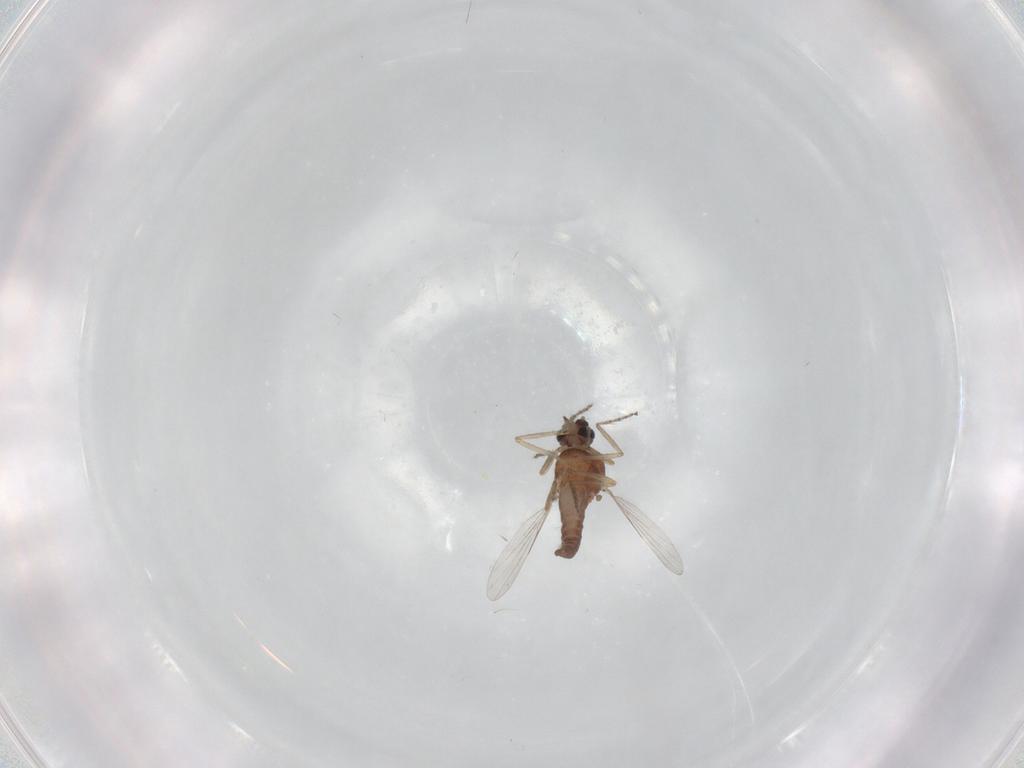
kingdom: Animalia
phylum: Arthropoda
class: Insecta
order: Diptera
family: Ceratopogonidae
